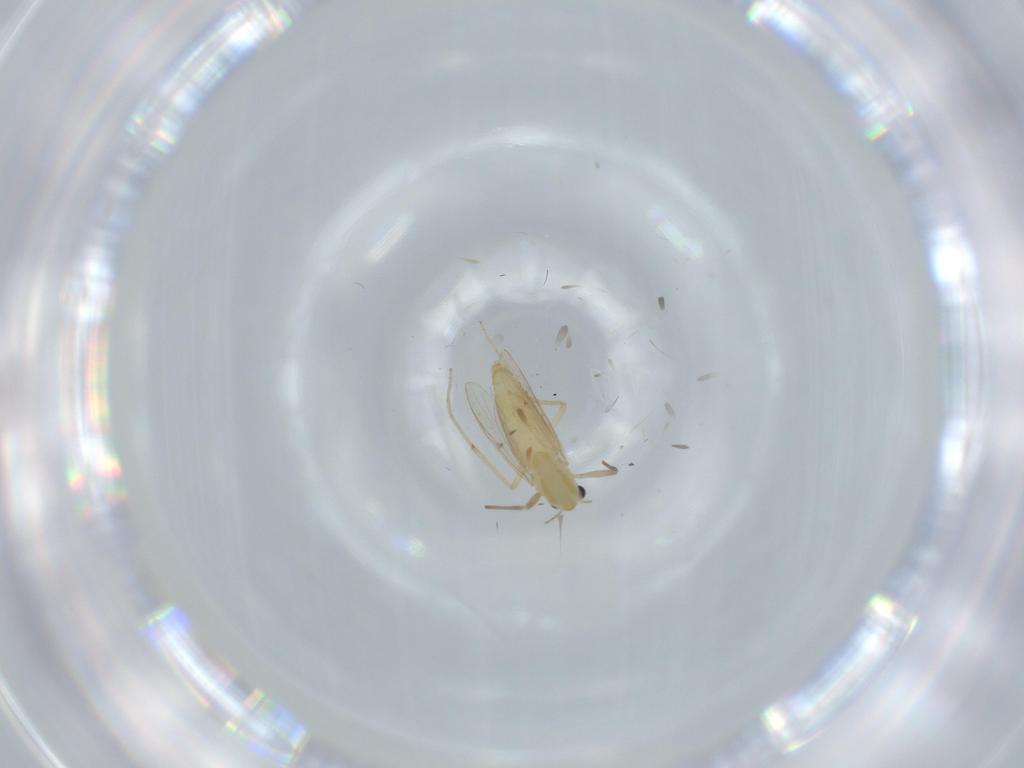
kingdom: Animalia
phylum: Arthropoda
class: Insecta
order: Diptera
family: Chironomidae
